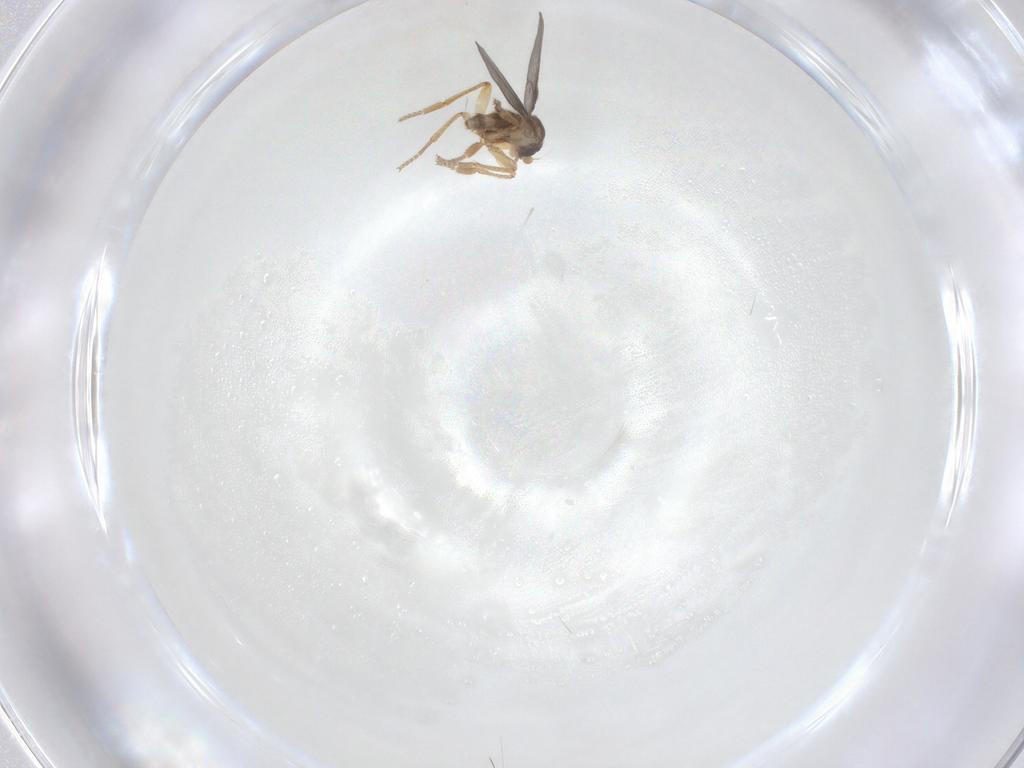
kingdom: Animalia
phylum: Arthropoda
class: Insecta
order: Diptera
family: Phoridae
